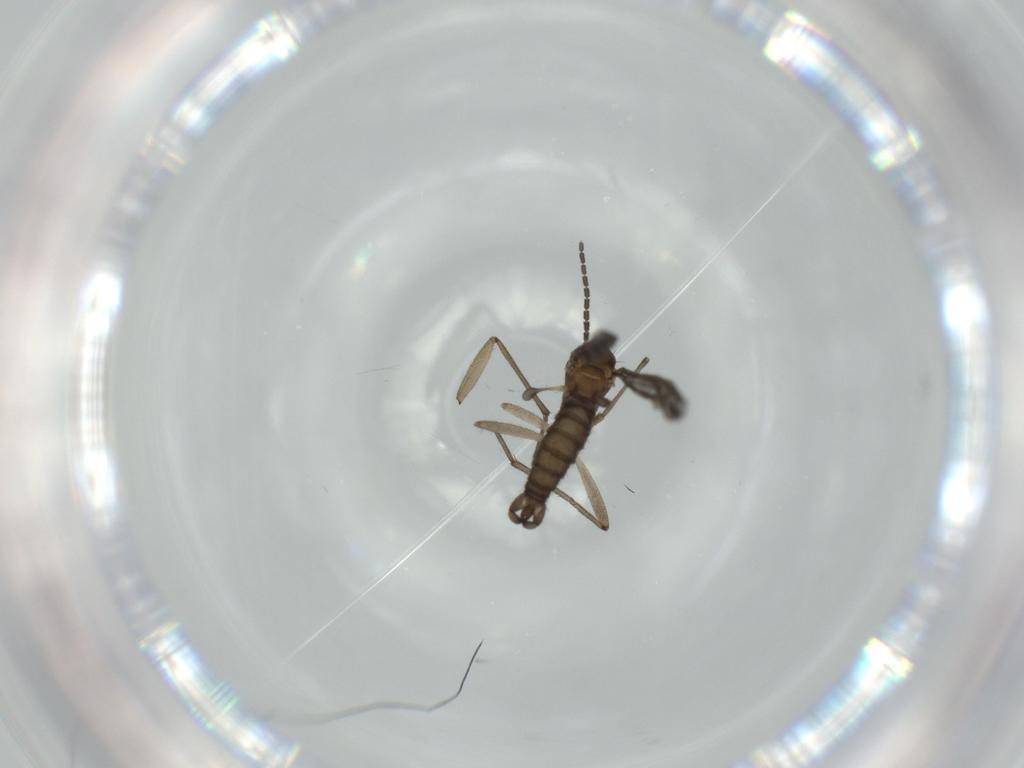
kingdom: Animalia
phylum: Arthropoda
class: Insecta
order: Diptera
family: Sciaridae
